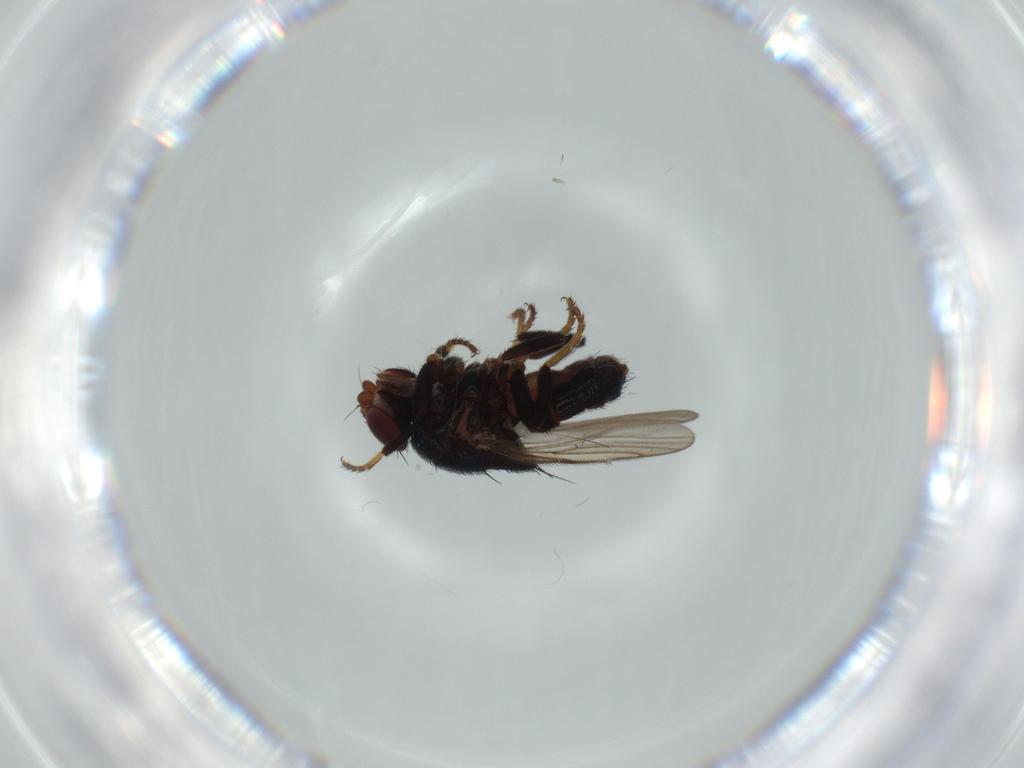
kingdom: Animalia
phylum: Arthropoda
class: Insecta
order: Diptera
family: Chloropidae
